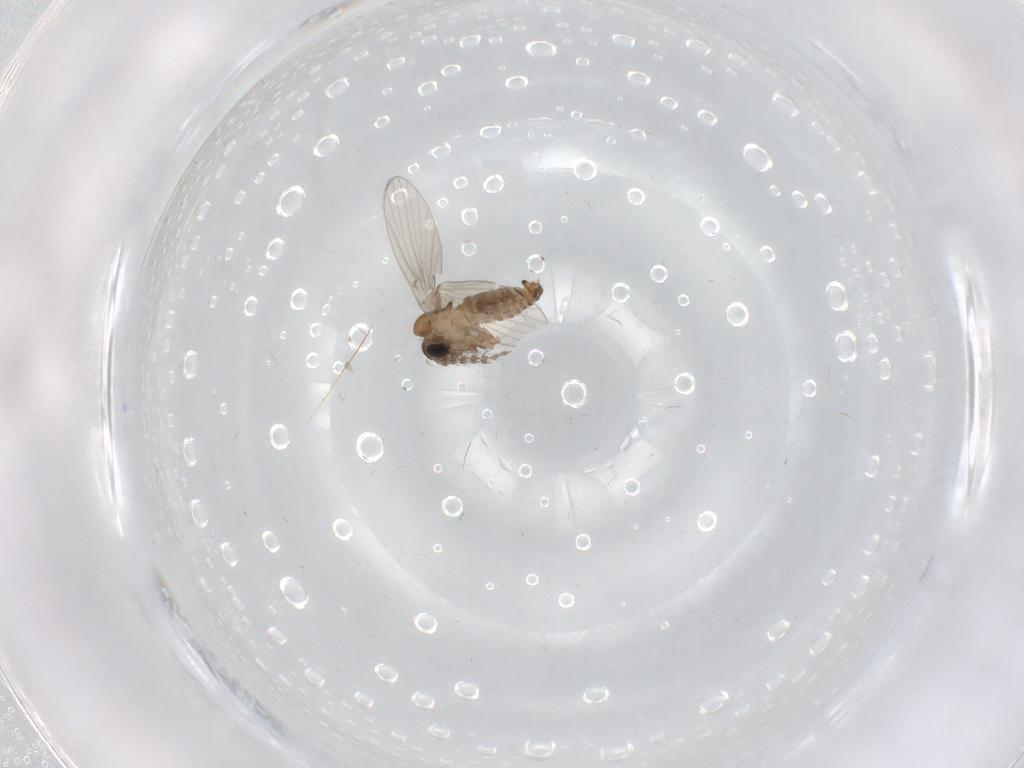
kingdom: Animalia
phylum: Arthropoda
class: Insecta
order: Diptera
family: Psychodidae
